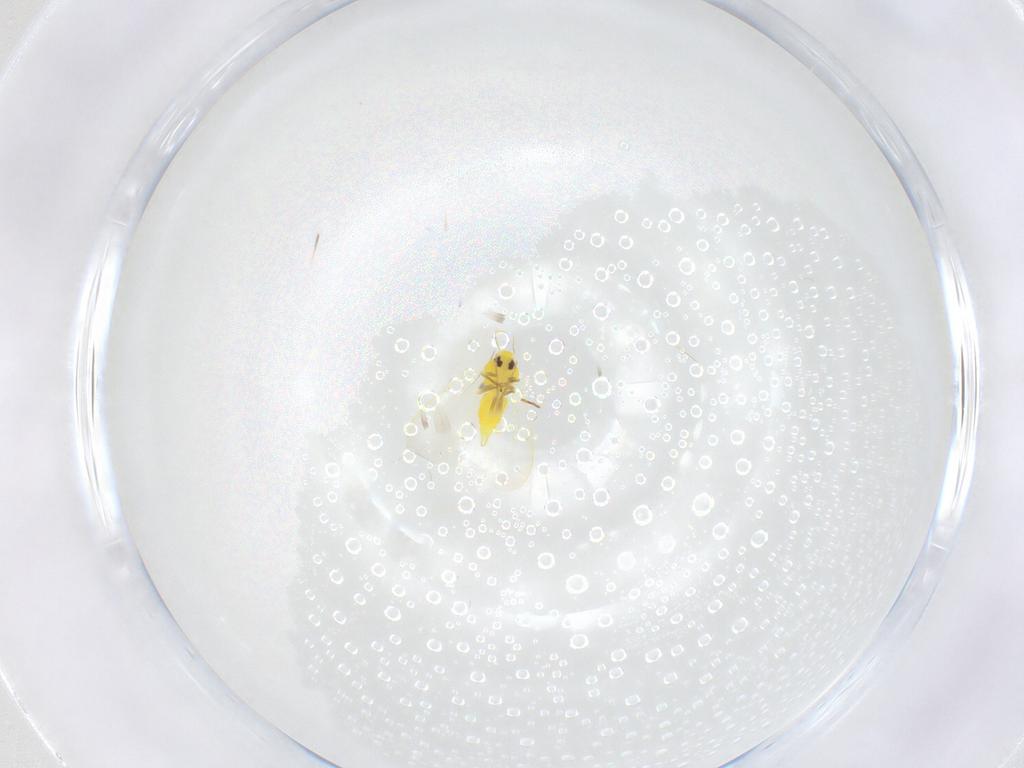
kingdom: Animalia
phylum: Arthropoda
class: Insecta
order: Hemiptera
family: Aleyrodidae
